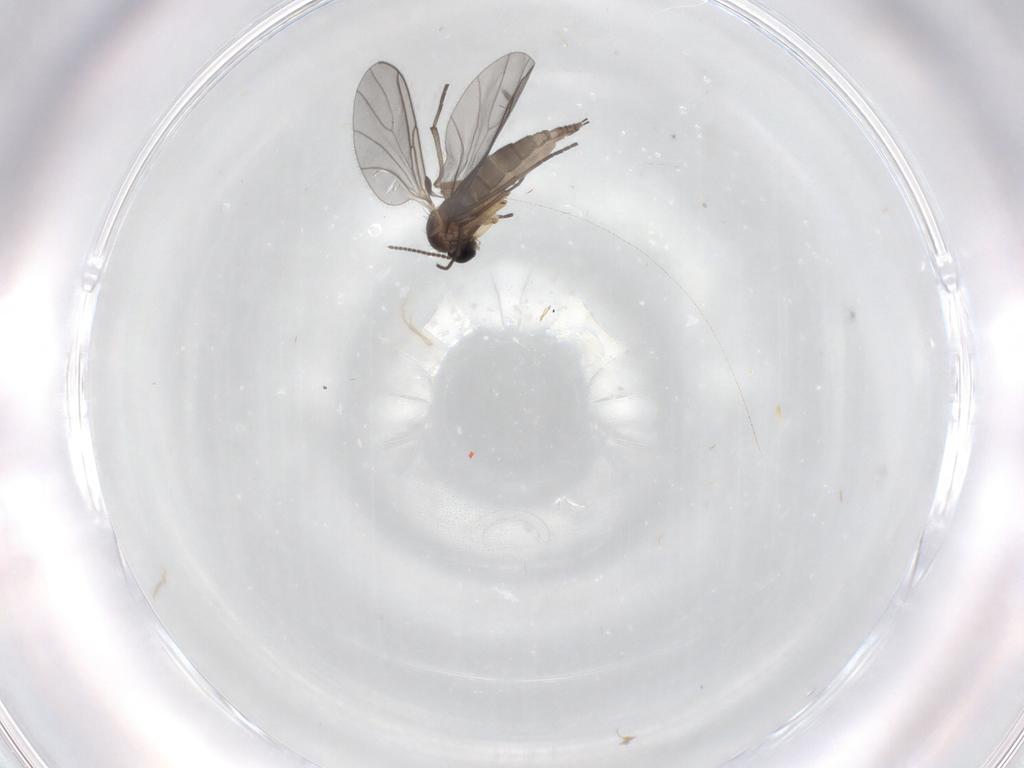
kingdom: Animalia
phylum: Arthropoda
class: Insecta
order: Diptera
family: Sciaridae
